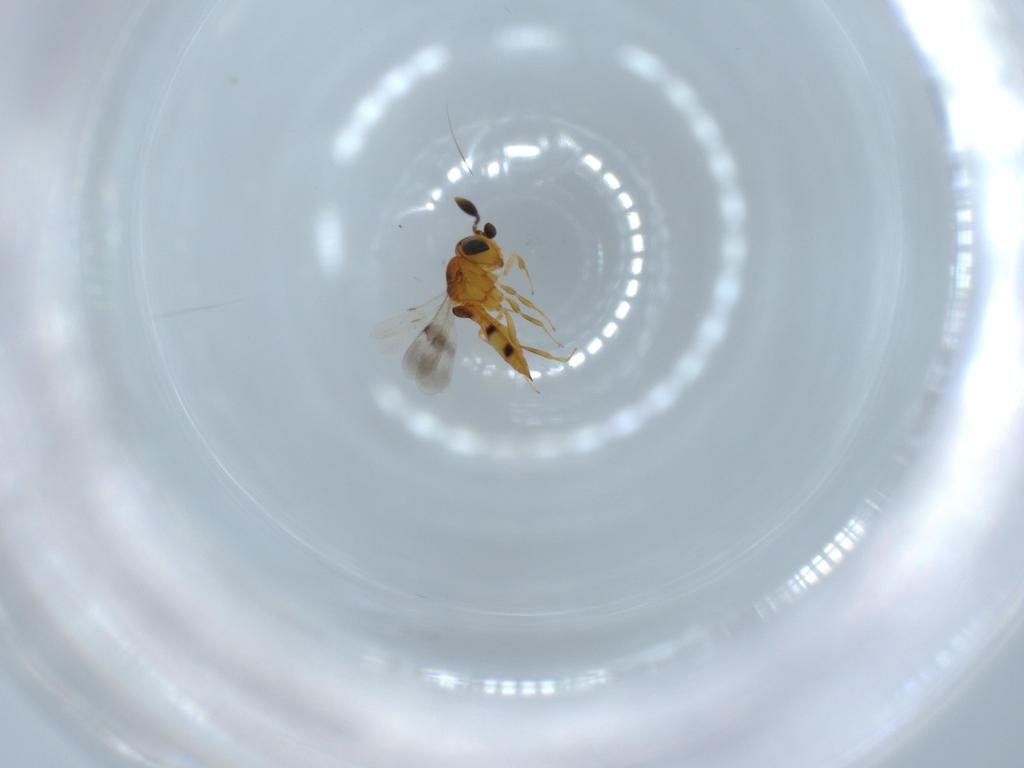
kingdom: Animalia
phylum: Arthropoda
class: Insecta
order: Hymenoptera
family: Scelionidae
